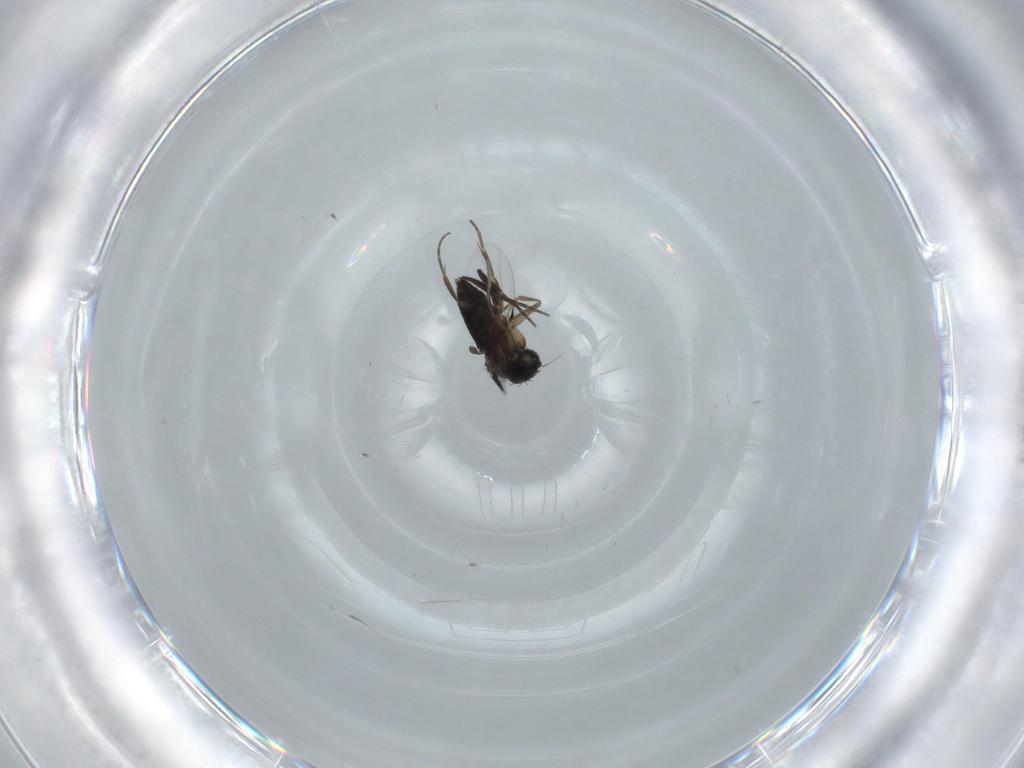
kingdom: Animalia
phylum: Arthropoda
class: Insecta
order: Diptera
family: Phoridae
